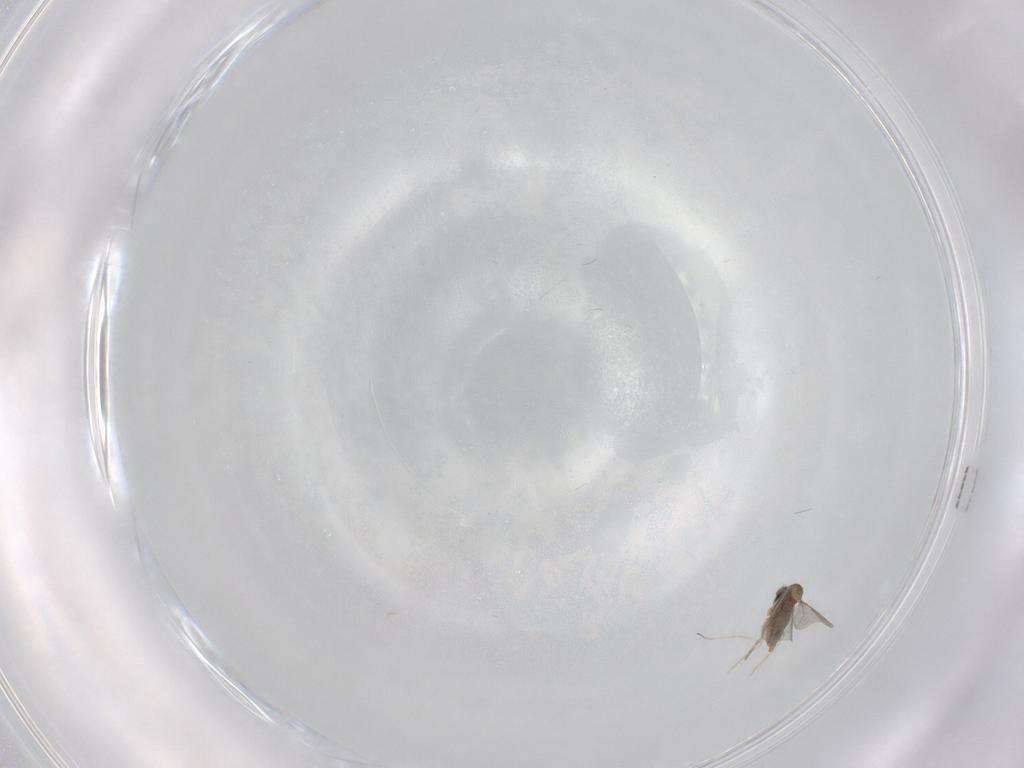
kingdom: Animalia
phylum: Arthropoda
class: Insecta
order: Diptera
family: Cecidomyiidae
